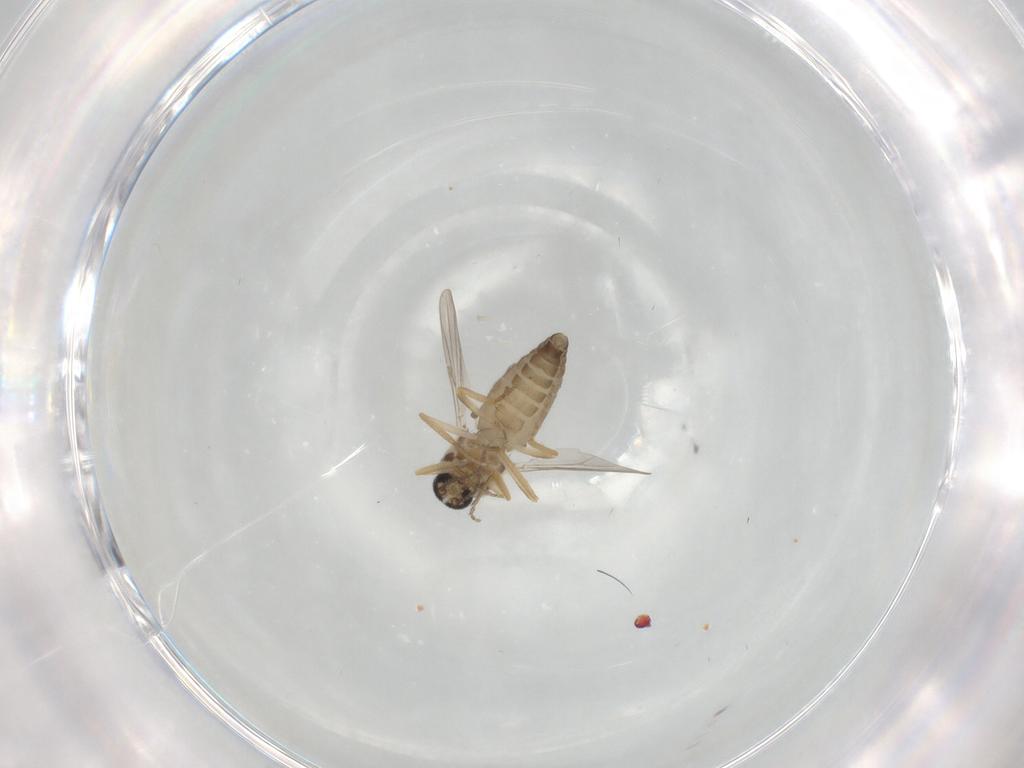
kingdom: Animalia
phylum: Arthropoda
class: Insecta
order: Diptera
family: Ceratopogonidae
